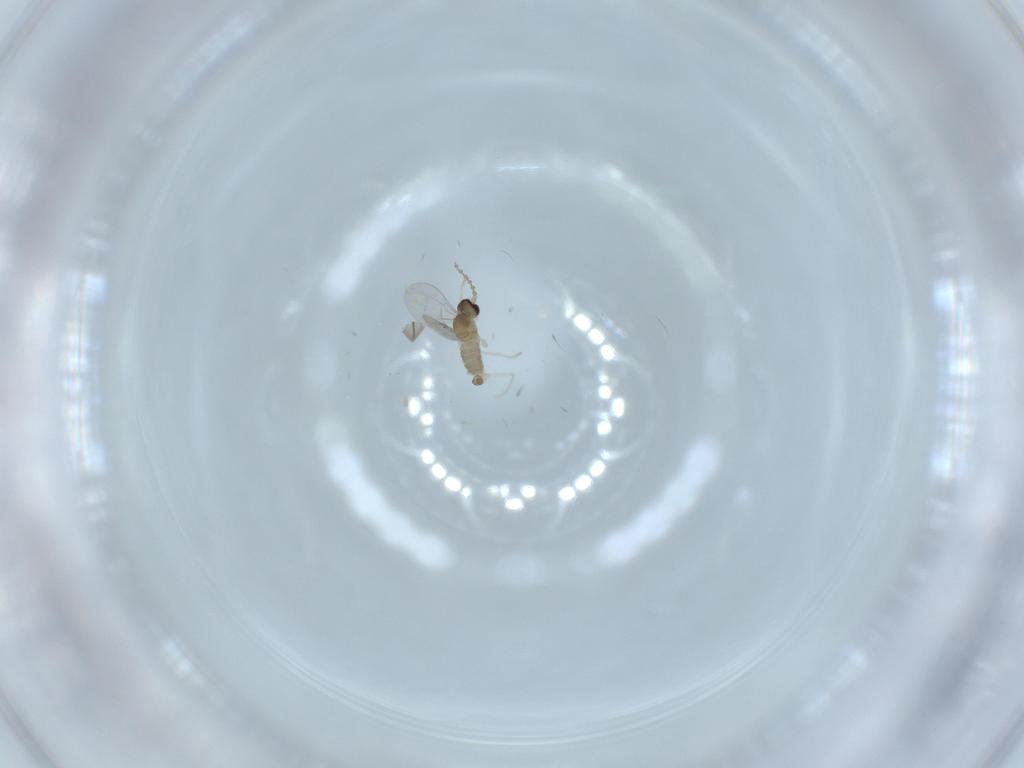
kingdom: Animalia
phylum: Arthropoda
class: Insecta
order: Diptera
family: Cecidomyiidae
